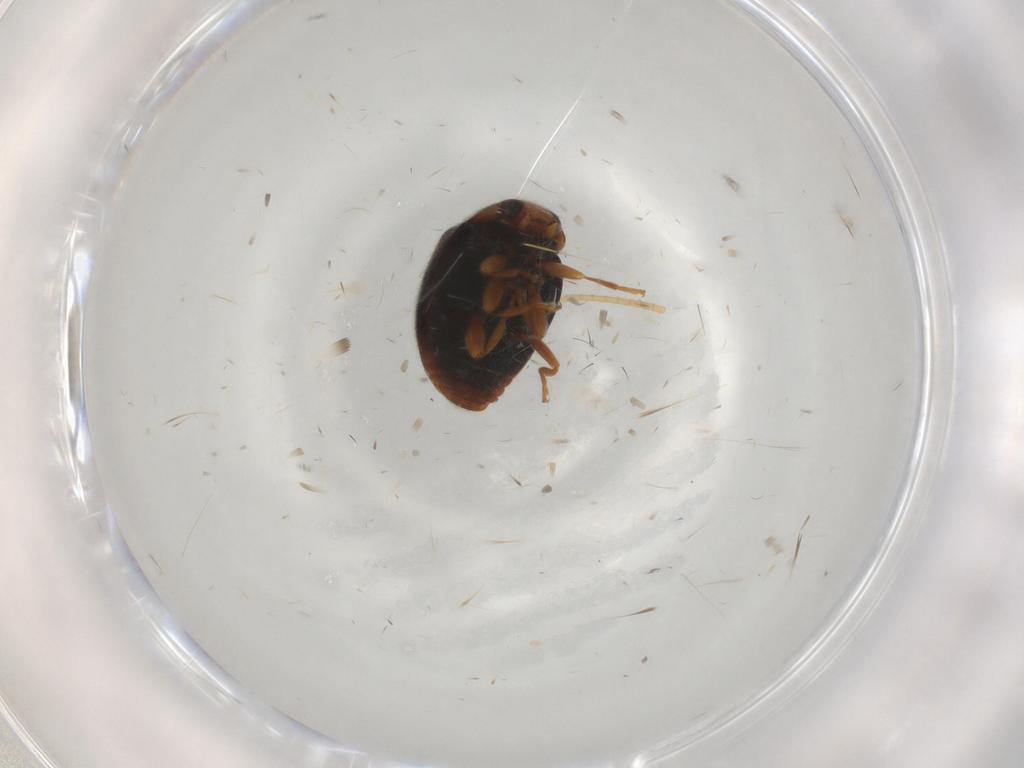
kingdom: Animalia
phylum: Arthropoda
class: Insecta
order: Coleoptera
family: Coccinellidae
